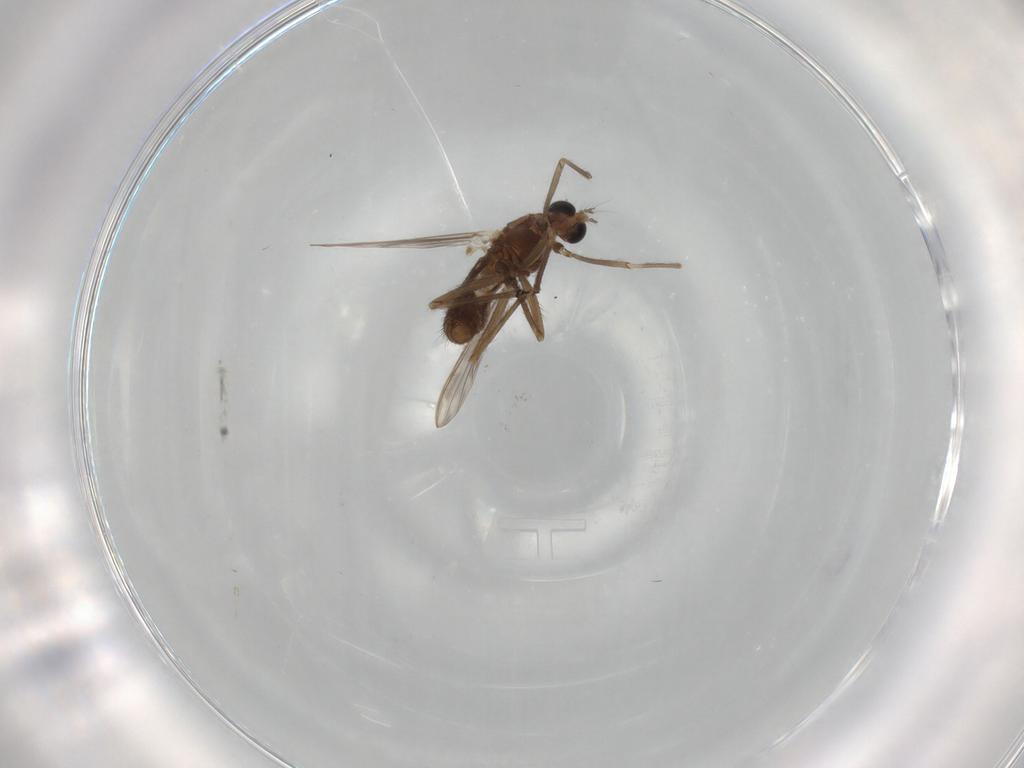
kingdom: Animalia
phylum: Arthropoda
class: Insecta
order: Diptera
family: Chironomidae
